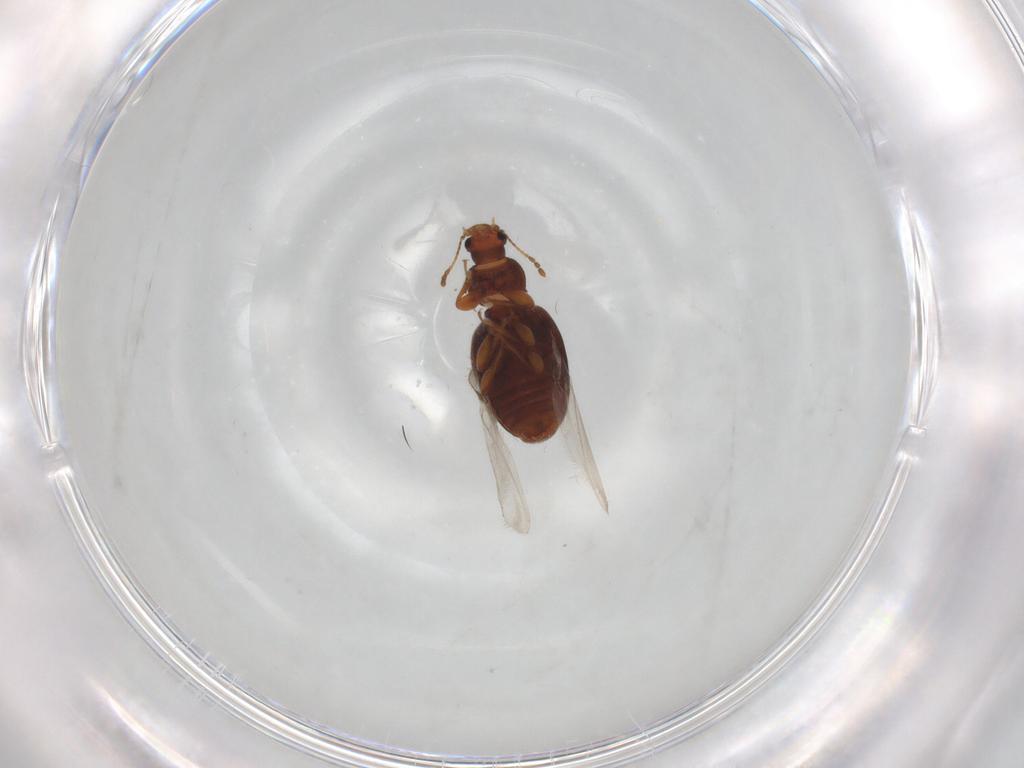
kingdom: Animalia
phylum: Arthropoda
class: Insecta
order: Coleoptera
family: Latridiidae
